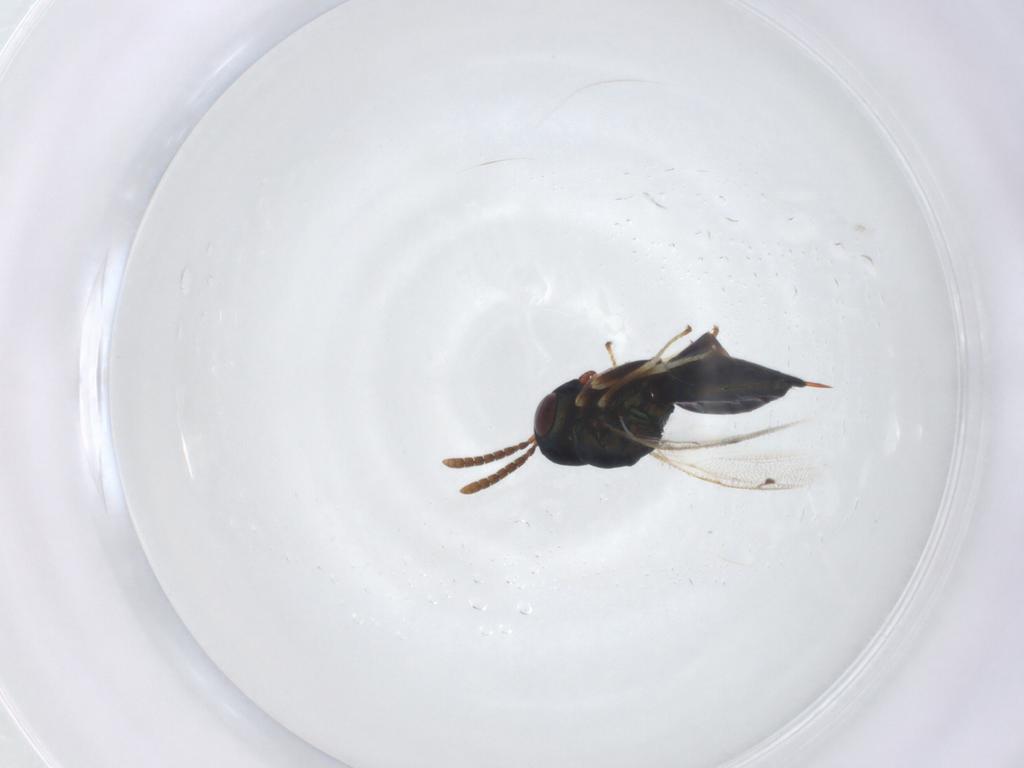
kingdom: Animalia
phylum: Arthropoda
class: Insecta
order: Hymenoptera
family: Pteromalidae
